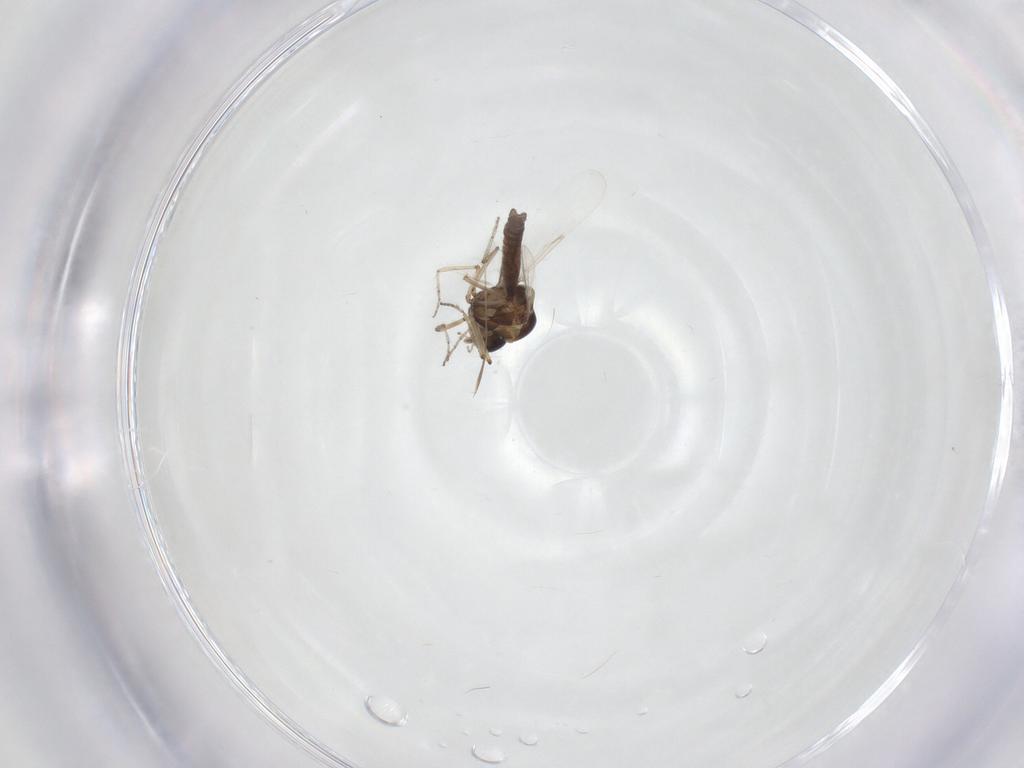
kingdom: Animalia
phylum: Arthropoda
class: Insecta
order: Diptera
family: Ceratopogonidae
